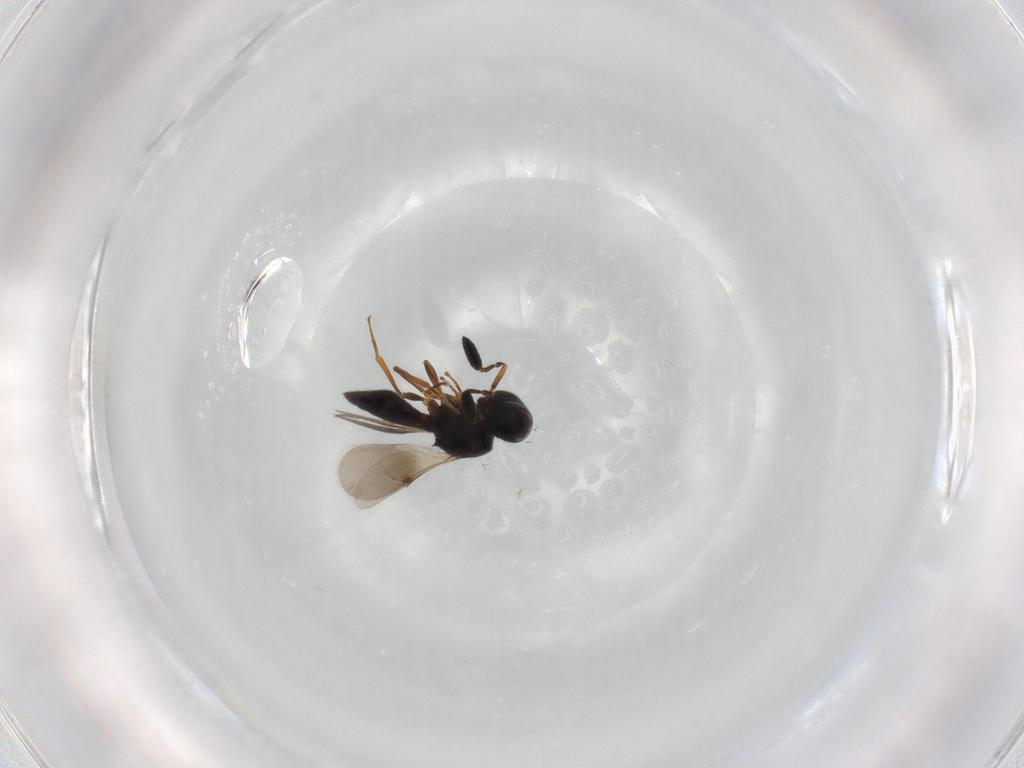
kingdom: Animalia
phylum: Arthropoda
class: Insecta
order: Hymenoptera
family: Scelionidae
